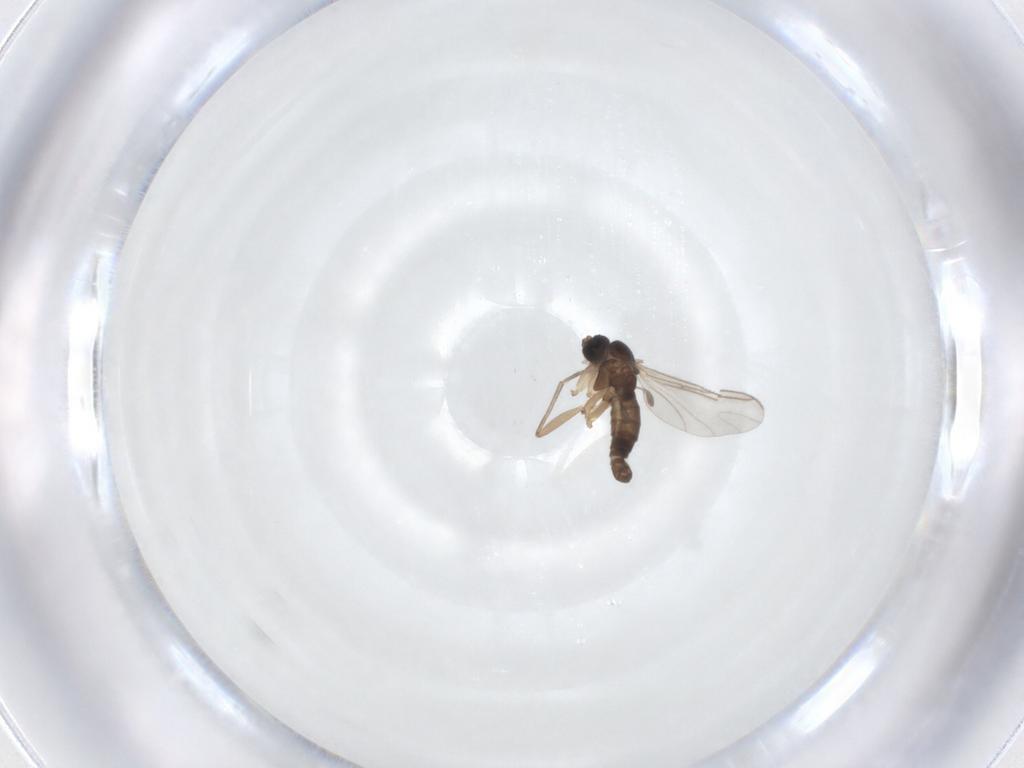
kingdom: Animalia
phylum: Arthropoda
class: Insecta
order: Diptera
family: Sciaridae
